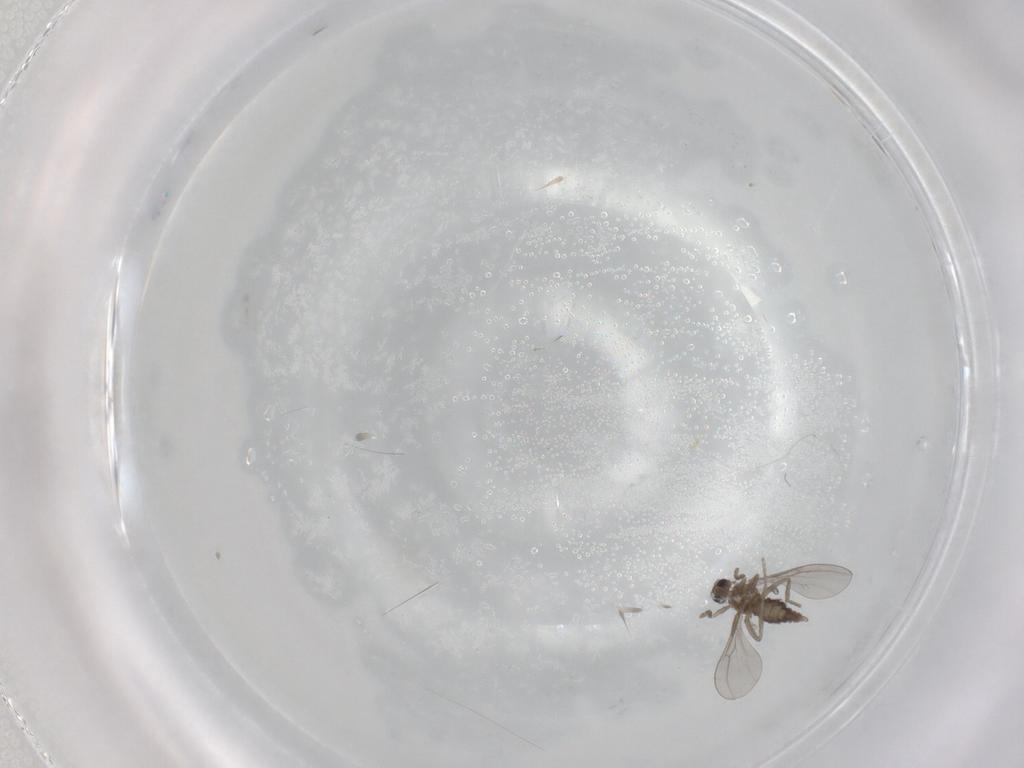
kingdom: Animalia
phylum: Arthropoda
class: Insecta
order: Diptera
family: Cecidomyiidae
